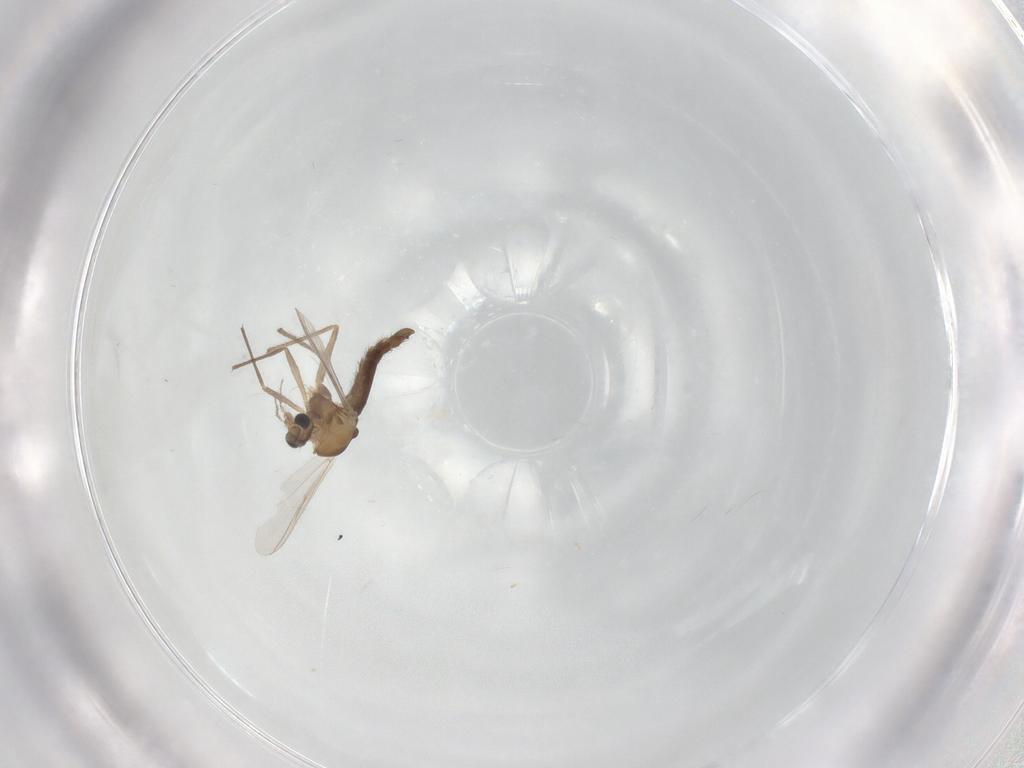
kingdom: Animalia
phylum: Arthropoda
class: Insecta
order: Diptera
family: Chironomidae
